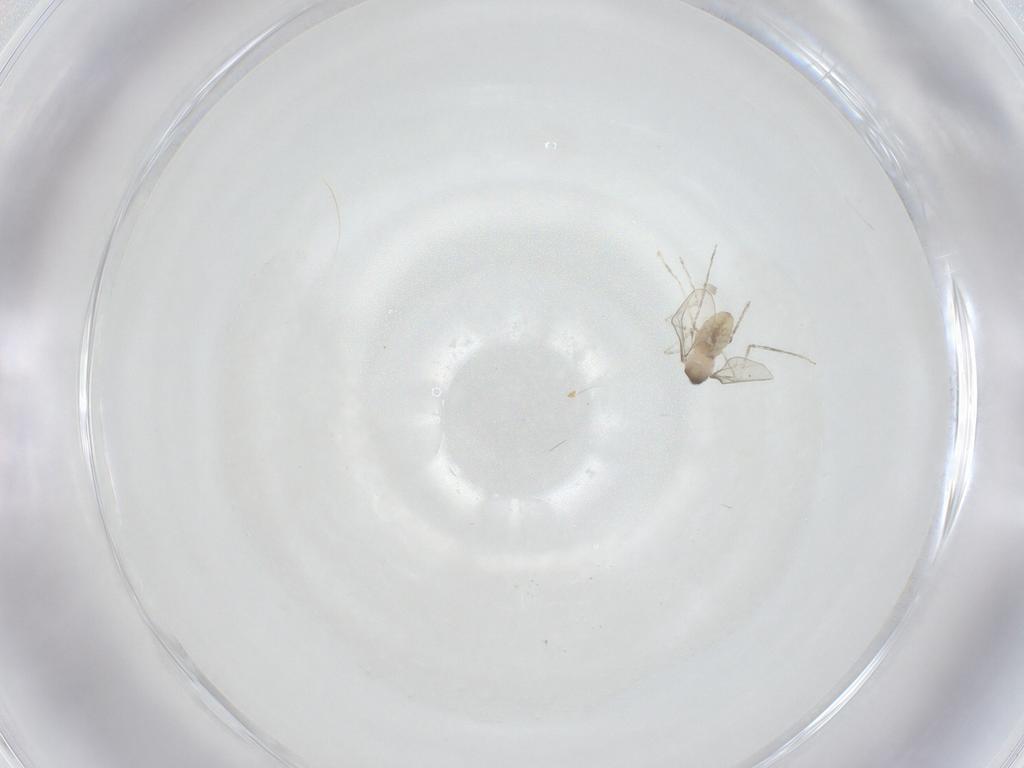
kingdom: Animalia
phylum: Arthropoda
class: Insecta
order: Diptera
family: Cecidomyiidae
